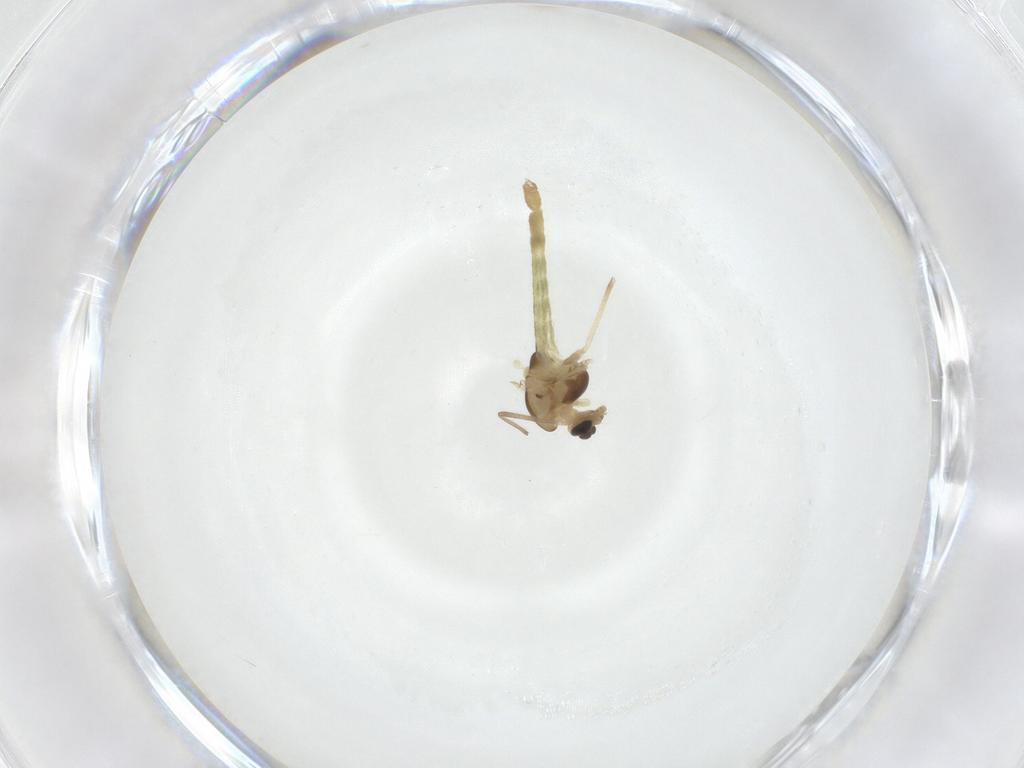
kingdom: Animalia
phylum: Arthropoda
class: Insecta
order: Diptera
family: Chironomidae
